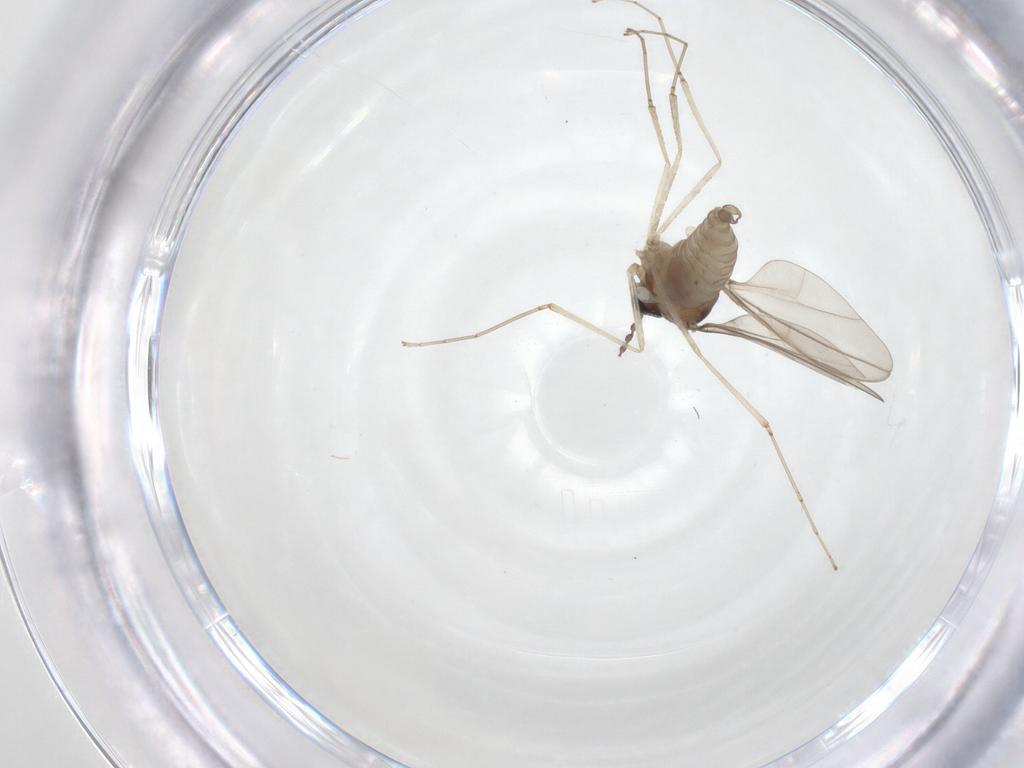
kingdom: Animalia
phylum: Arthropoda
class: Insecta
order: Diptera
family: Cecidomyiidae
